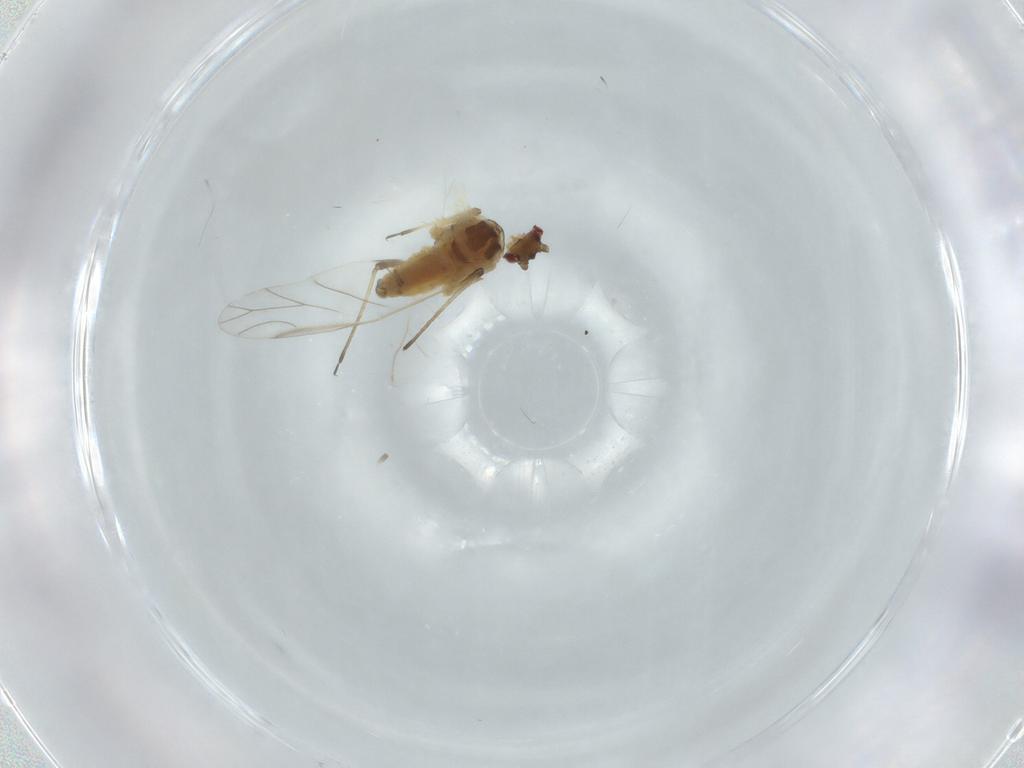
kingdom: Animalia
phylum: Arthropoda
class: Insecta
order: Hemiptera
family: Aphididae
